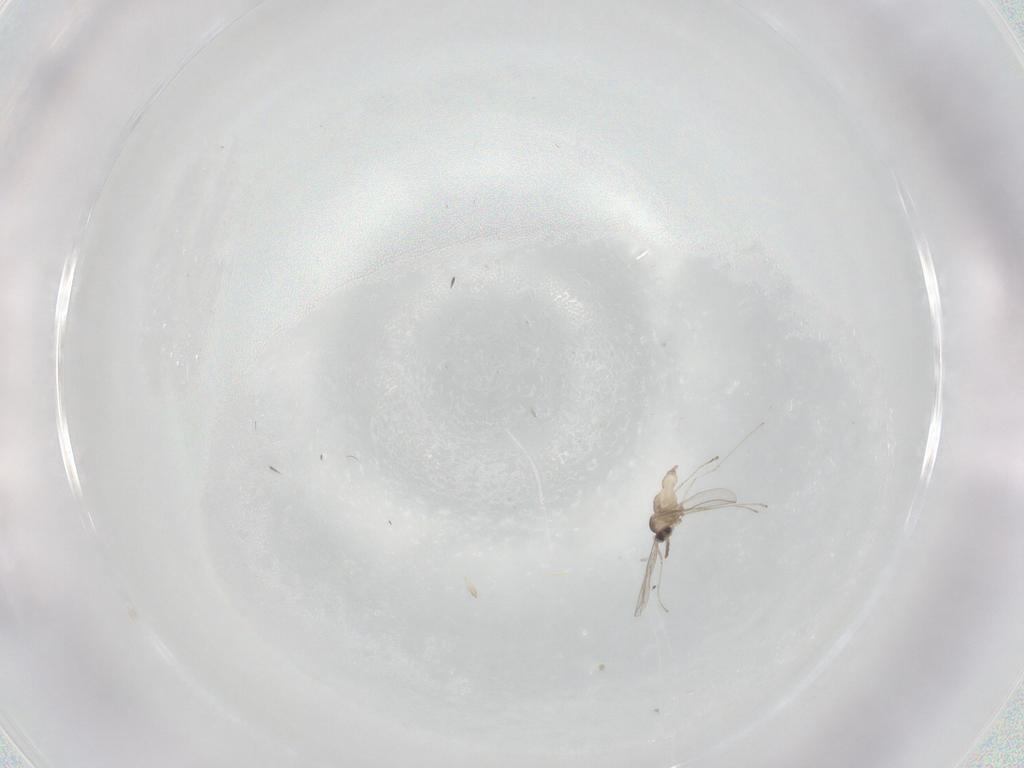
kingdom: Animalia
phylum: Arthropoda
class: Insecta
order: Diptera
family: Cecidomyiidae
